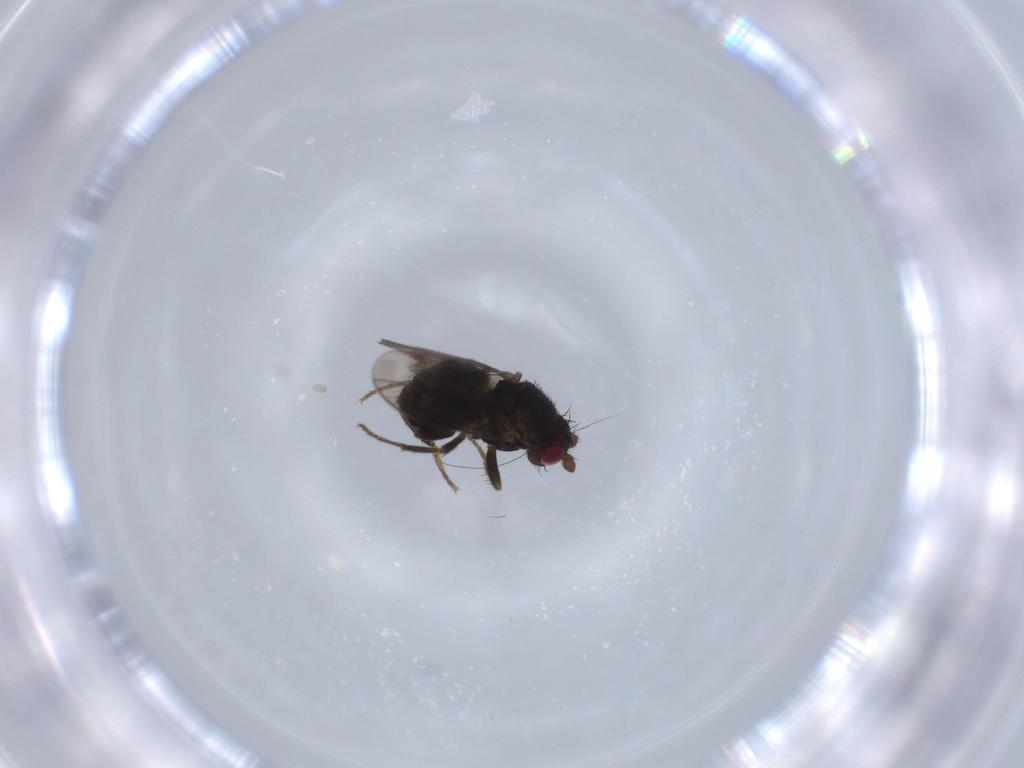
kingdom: Animalia
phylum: Arthropoda
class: Insecta
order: Diptera
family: Sphaeroceridae
